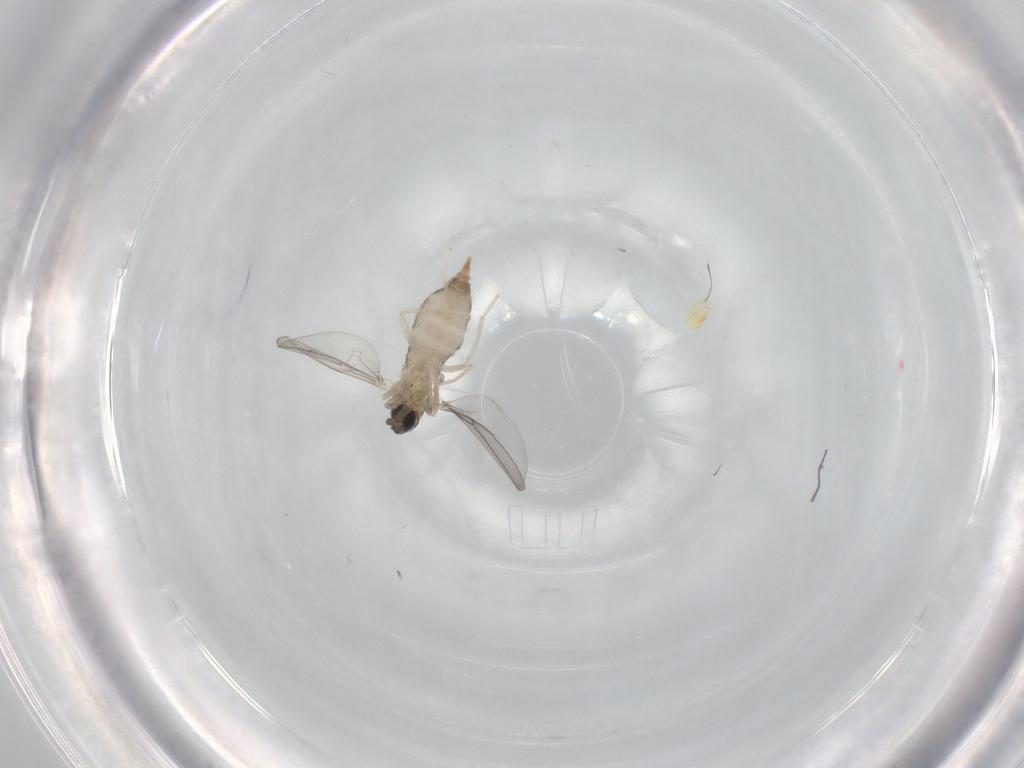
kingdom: Animalia
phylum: Arthropoda
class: Insecta
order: Diptera
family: Cecidomyiidae
